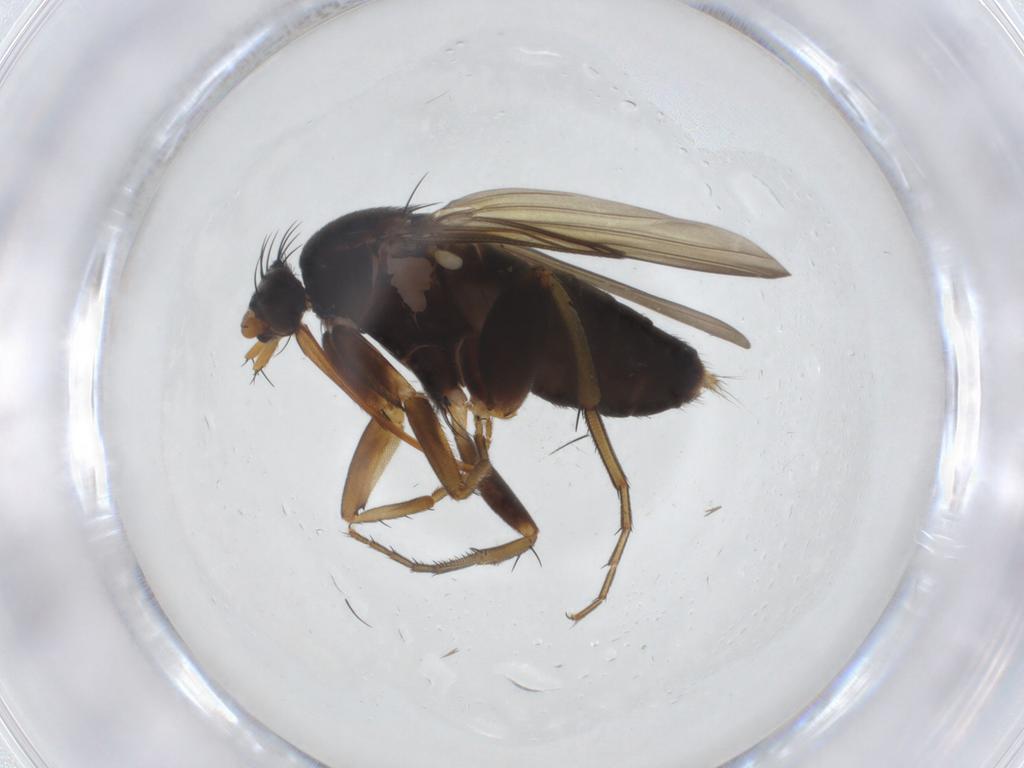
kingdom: Animalia
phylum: Arthropoda
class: Insecta
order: Diptera
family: Phoridae
